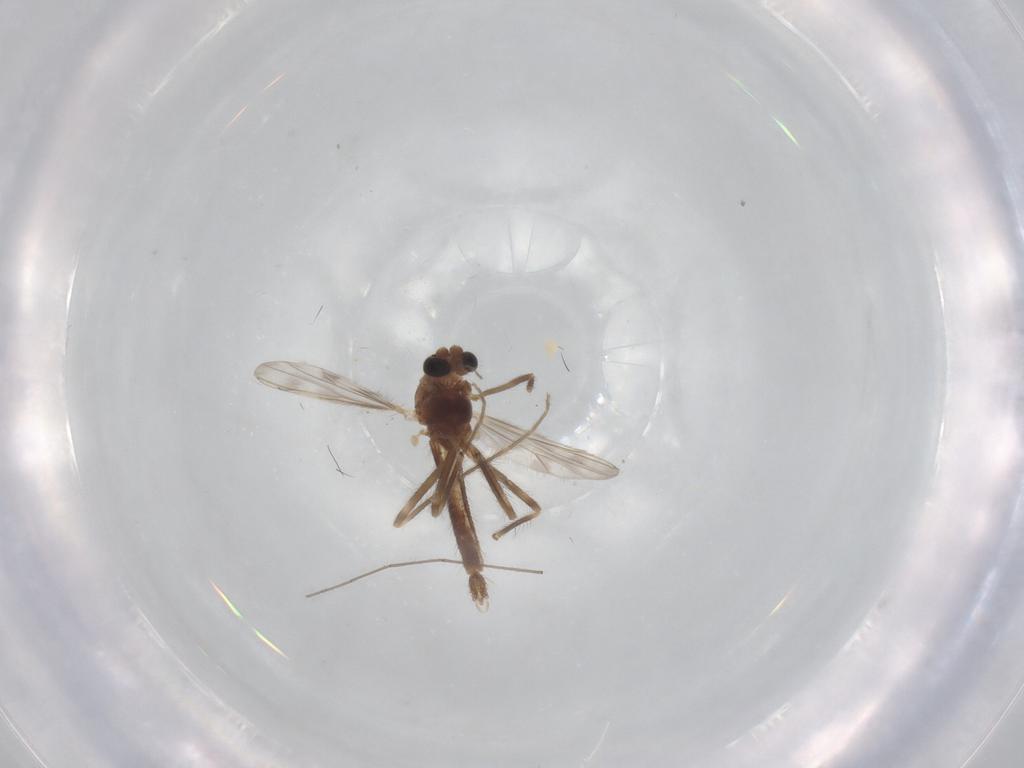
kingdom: Animalia
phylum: Arthropoda
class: Insecta
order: Diptera
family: Chironomidae
